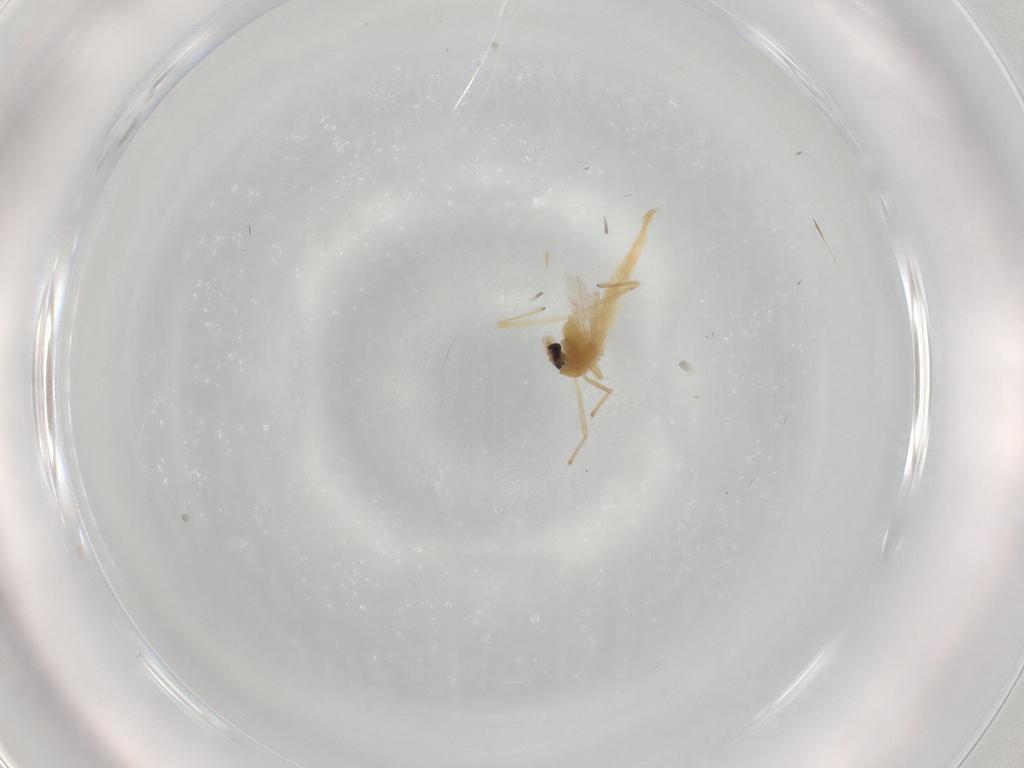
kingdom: Animalia
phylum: Arthropoda
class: Insecta
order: Diptera
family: Chironomidae
